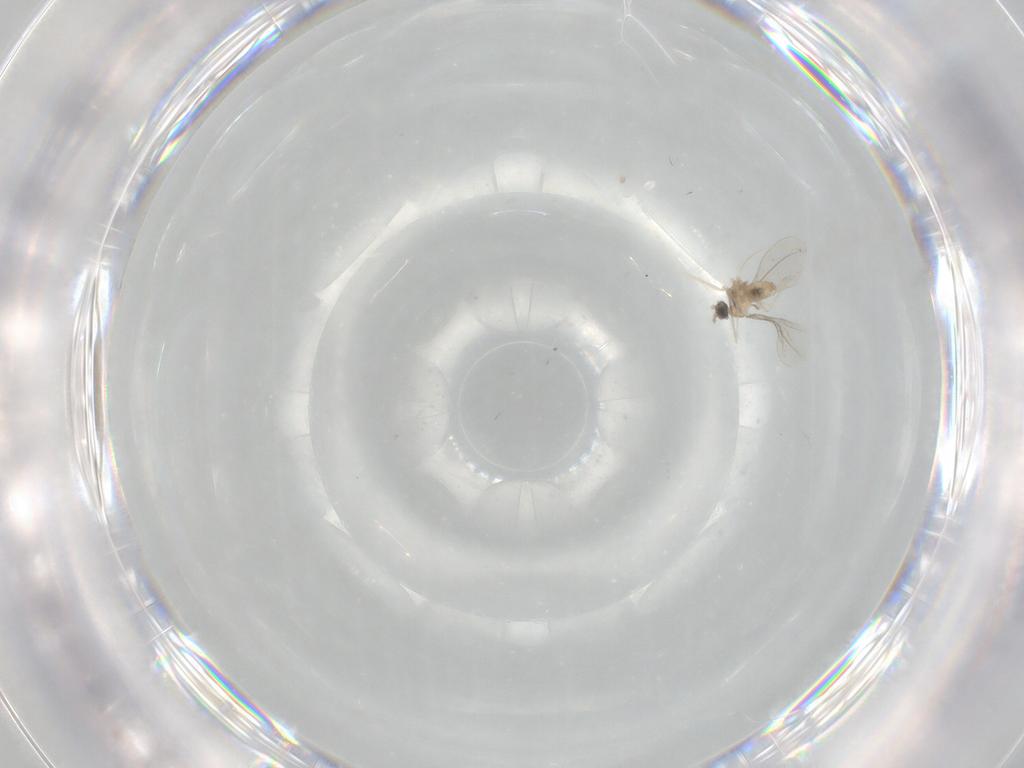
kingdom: Animalia
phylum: Arthropoda
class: Insecta
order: Diptera
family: Cecidomyiidae
